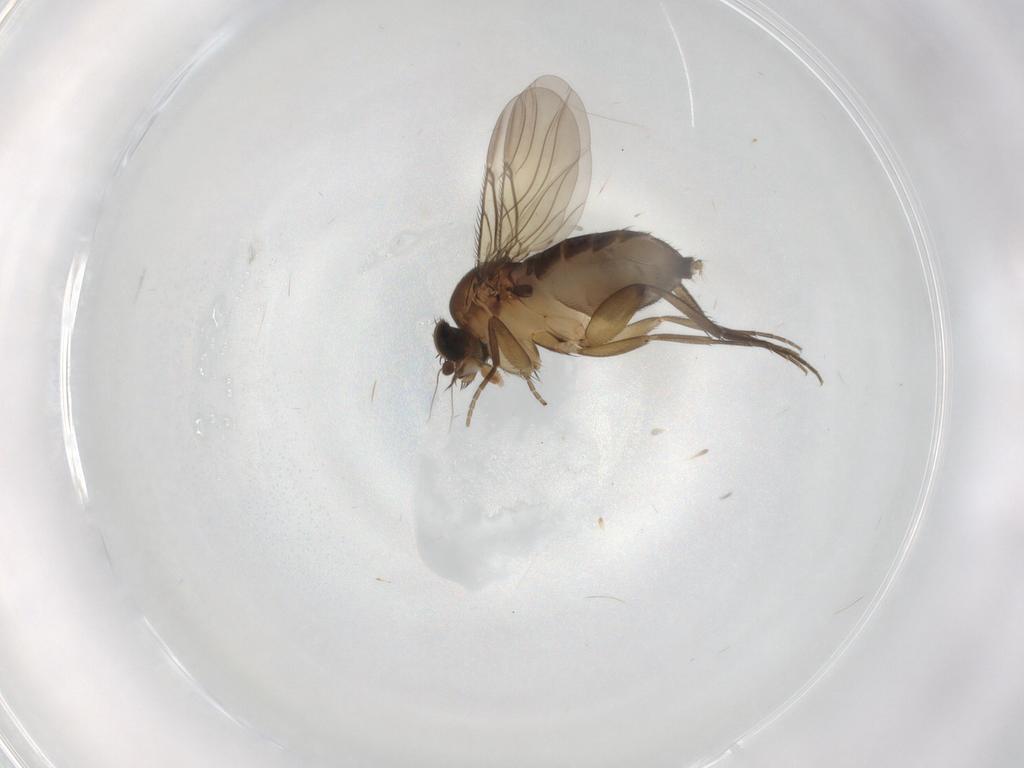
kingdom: Animalia
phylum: Arthropoda
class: Insecta
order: Diptera
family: Phoridae
